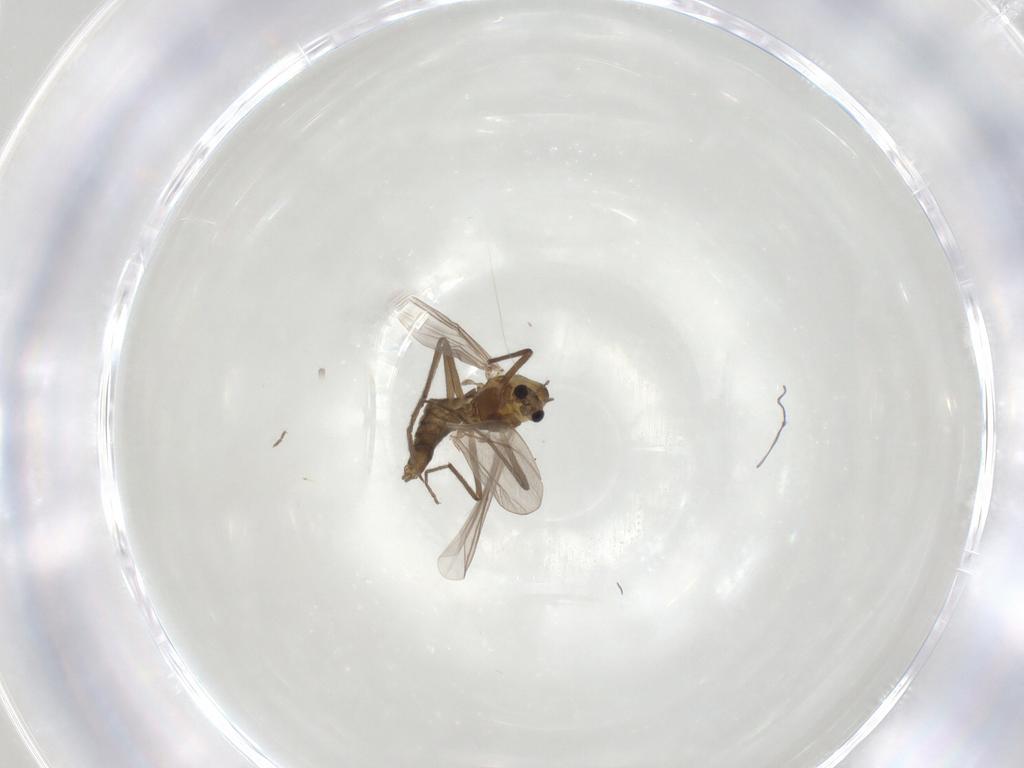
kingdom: Animalia
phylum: Arthropoda
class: Insecta
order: Diptera
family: Chironomidae
